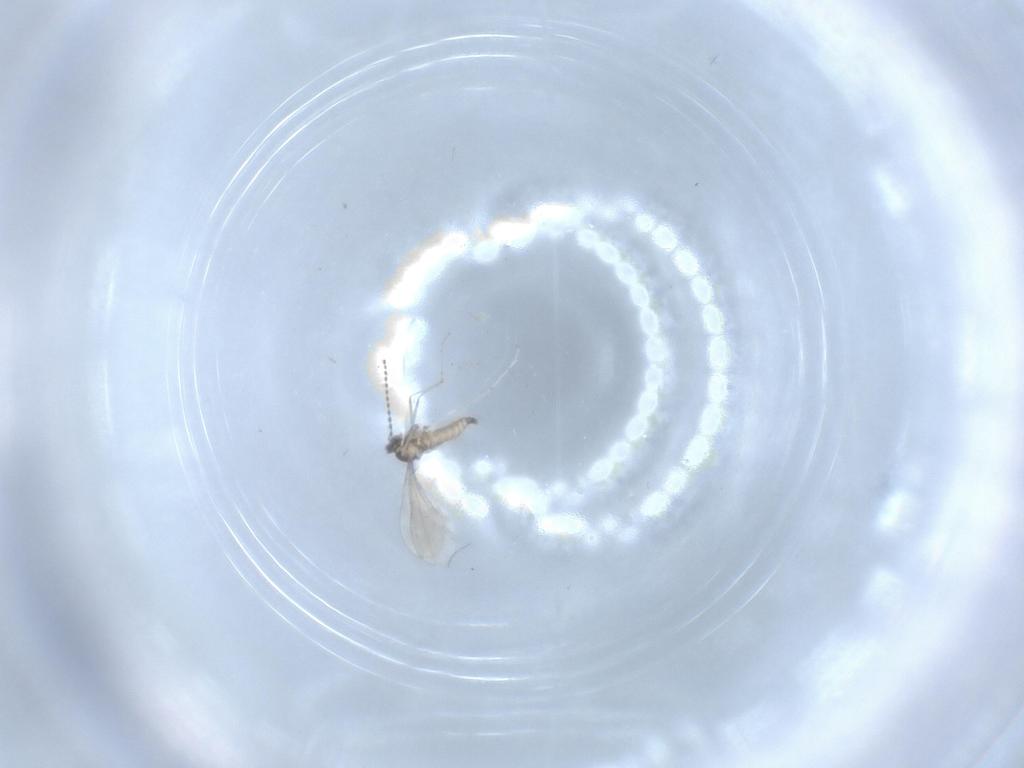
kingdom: Animalia
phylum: Arthropoda
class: Insecta
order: Diptera
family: Cecidomyiidae
